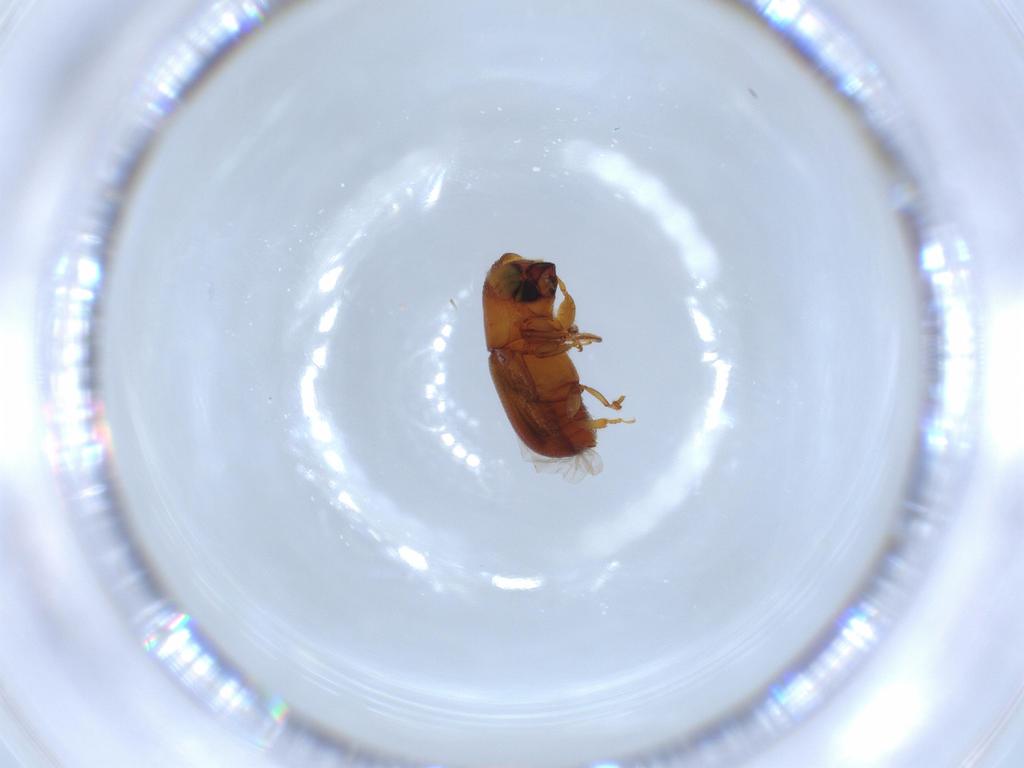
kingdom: Animalia
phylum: Arthropoda
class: Insecta
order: Coleoptera
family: Curculionidae
